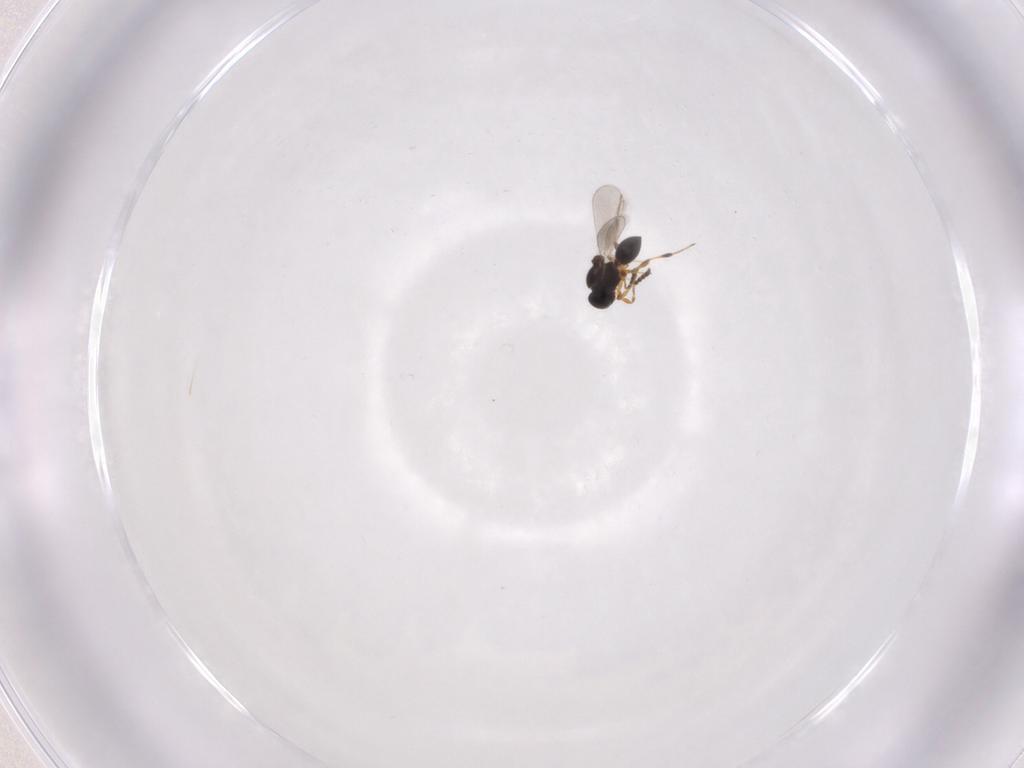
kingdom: Animalia
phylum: Arthropoda
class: Insecta
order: Hymenoptera
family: Platygastridae
